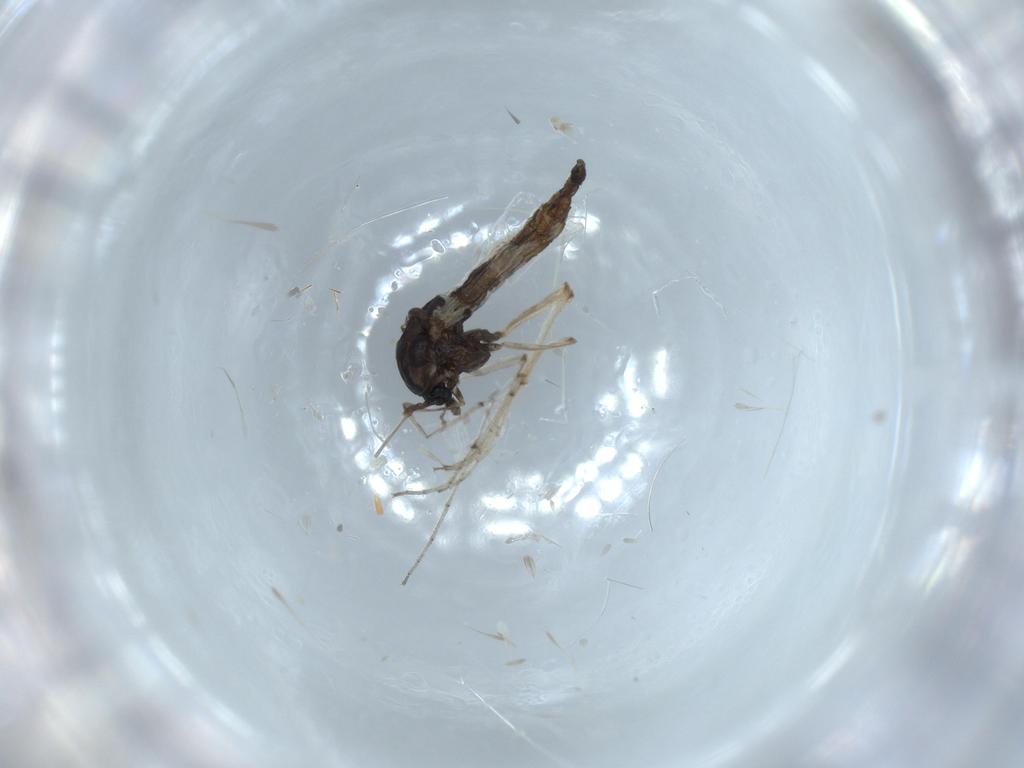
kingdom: Animalia
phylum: Arthropoda
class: Insecta
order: Diptera
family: Chironomidae
